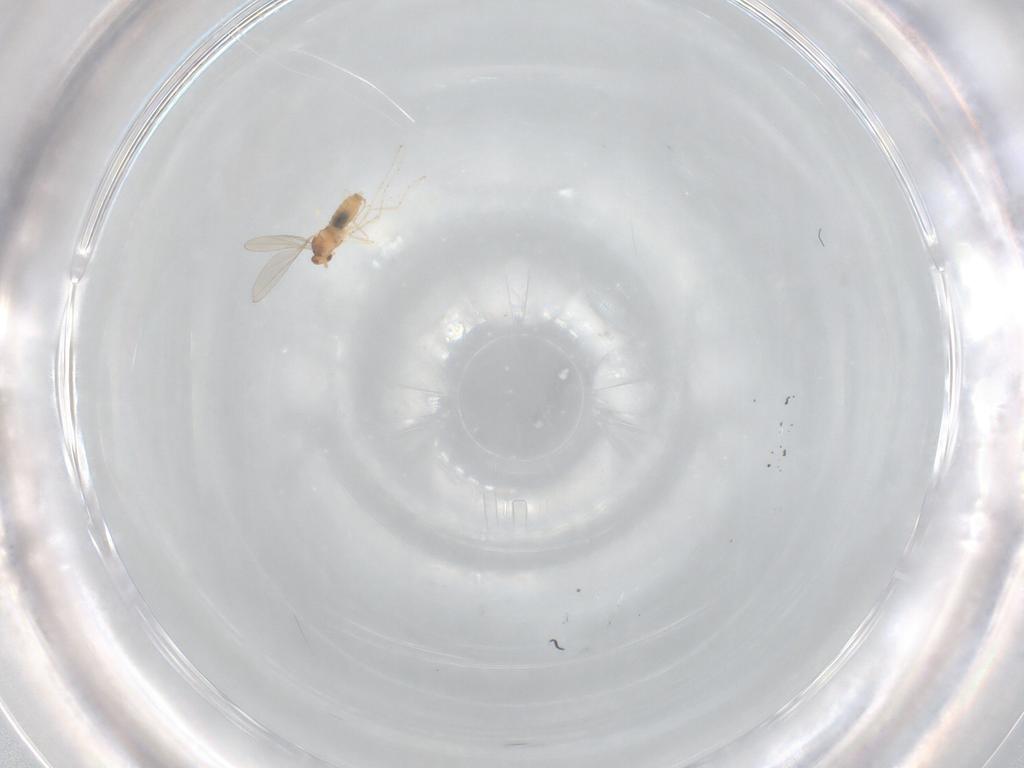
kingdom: Animalia
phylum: Arthropoda
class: Insecta
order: Diptera
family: Cecidomyiidae
